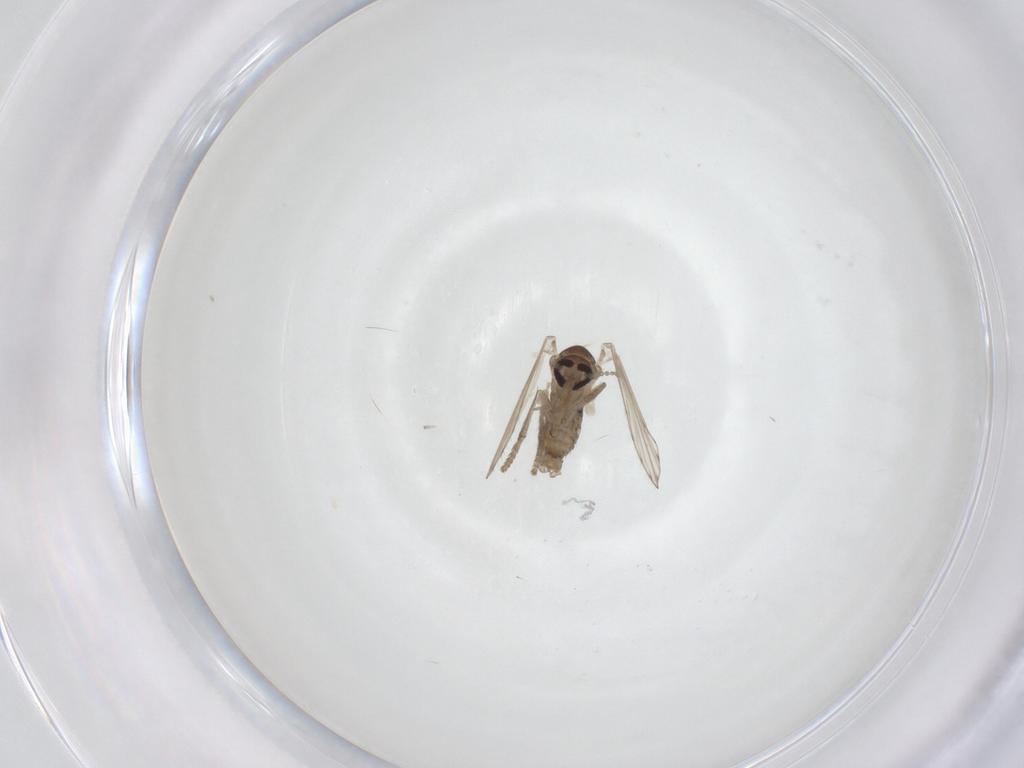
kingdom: Animalia
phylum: Arthropoda
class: Insecta
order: Diptera
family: Psychodidae
